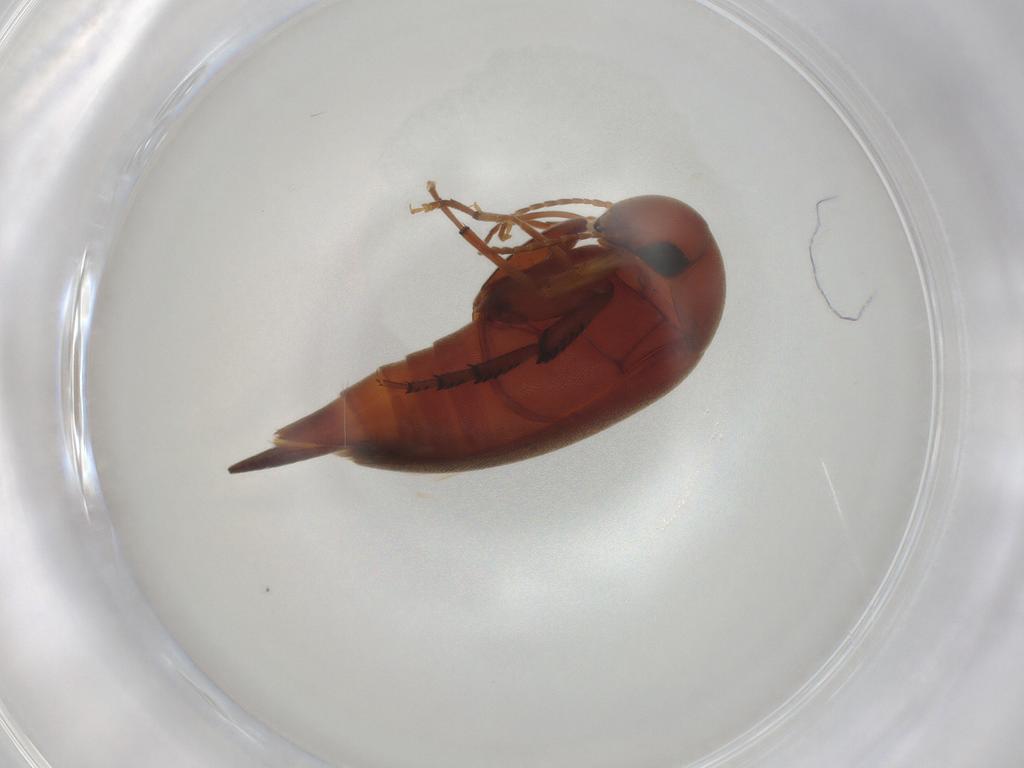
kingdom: Animalia
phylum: Arthropoda
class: Insecta
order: Coleoptera
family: Mordellidae
